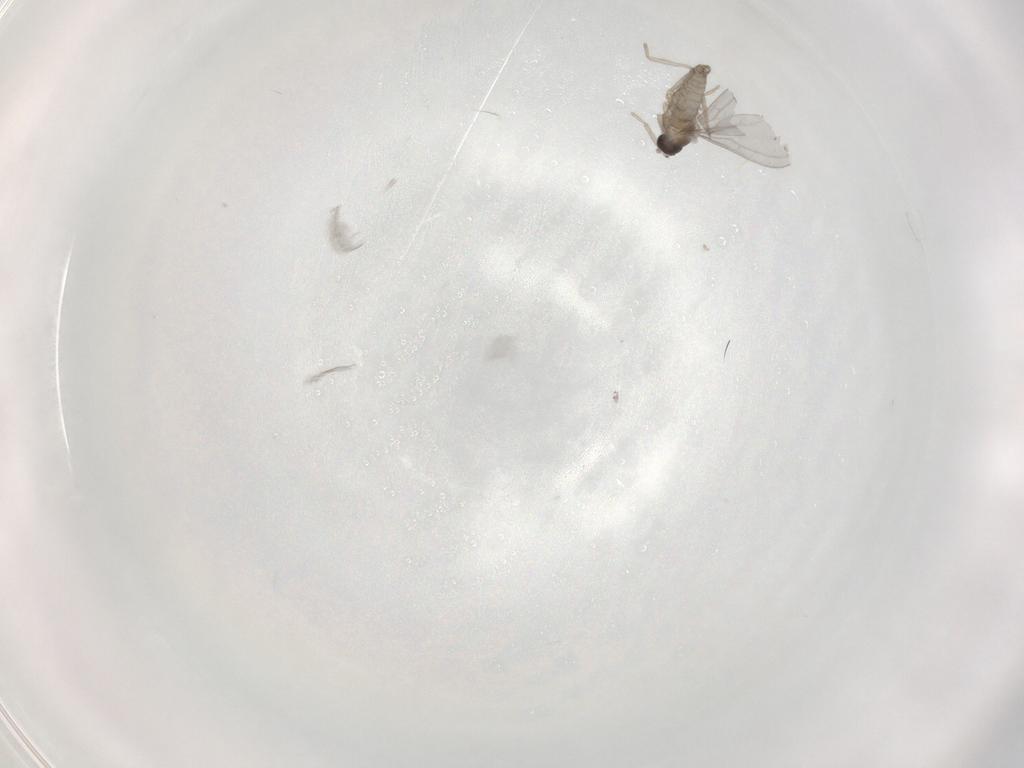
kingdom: Animalia
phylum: Arthropoda
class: Insecta
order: Diptera
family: Cecidomyiidae
